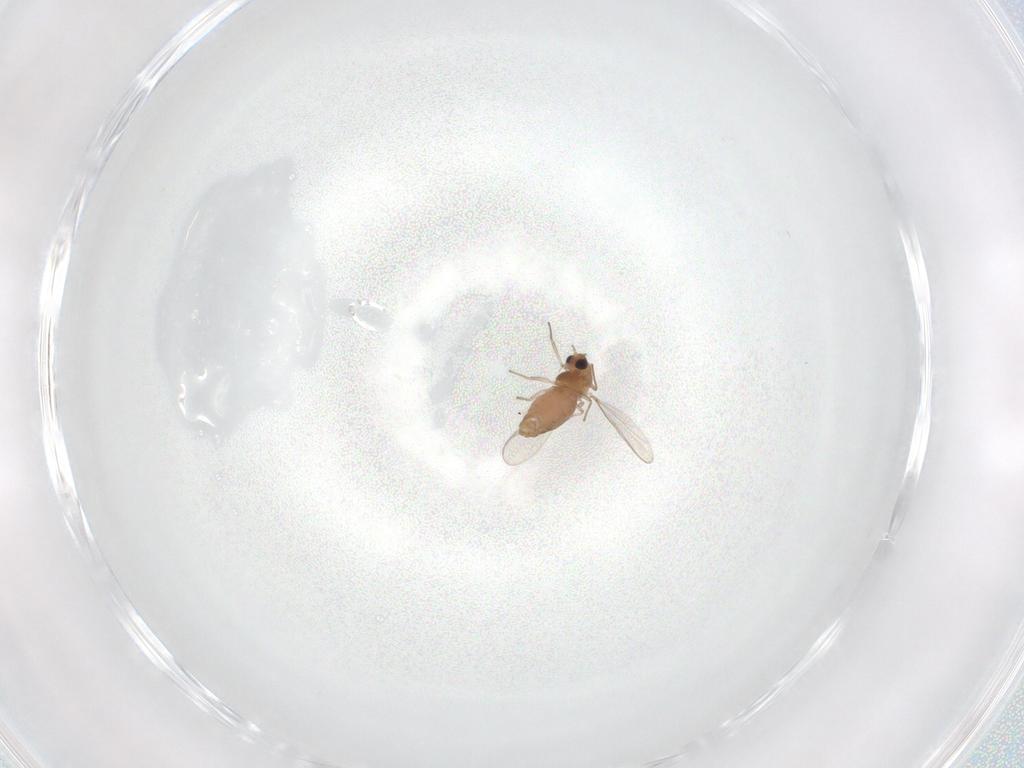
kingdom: Animalia
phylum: Arthropoda
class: Insecta
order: Diptera
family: Chironomidae
